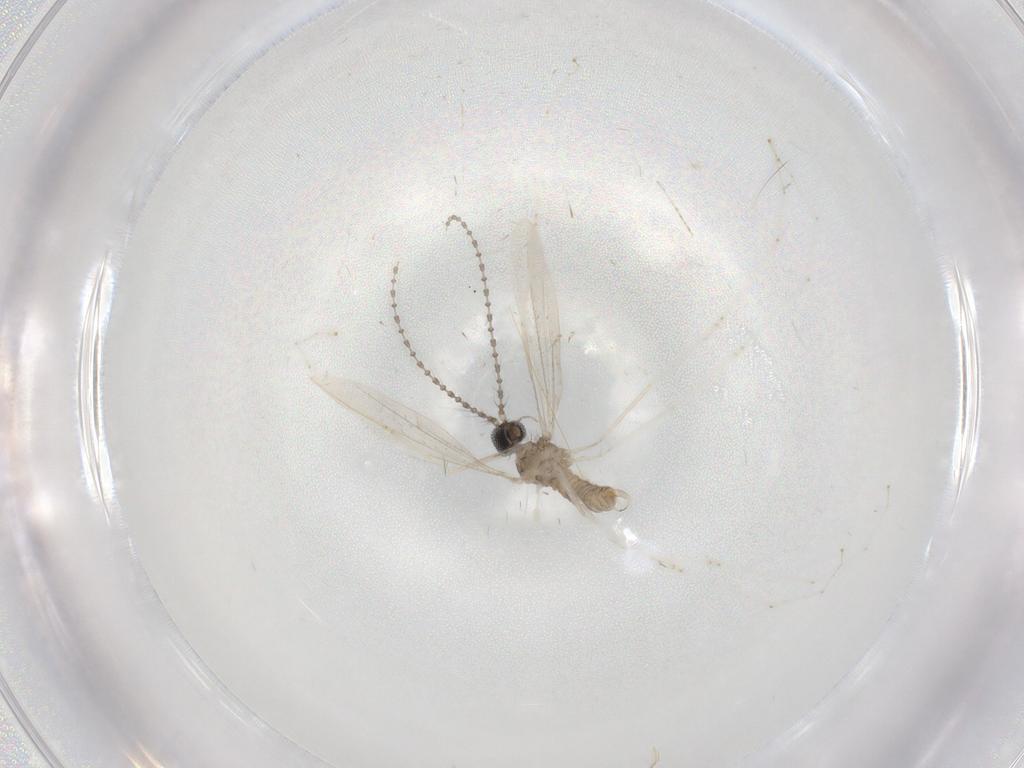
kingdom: Animalia
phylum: Arthropoda
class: Insecta
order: Diptera
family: Cecidomyiidae
